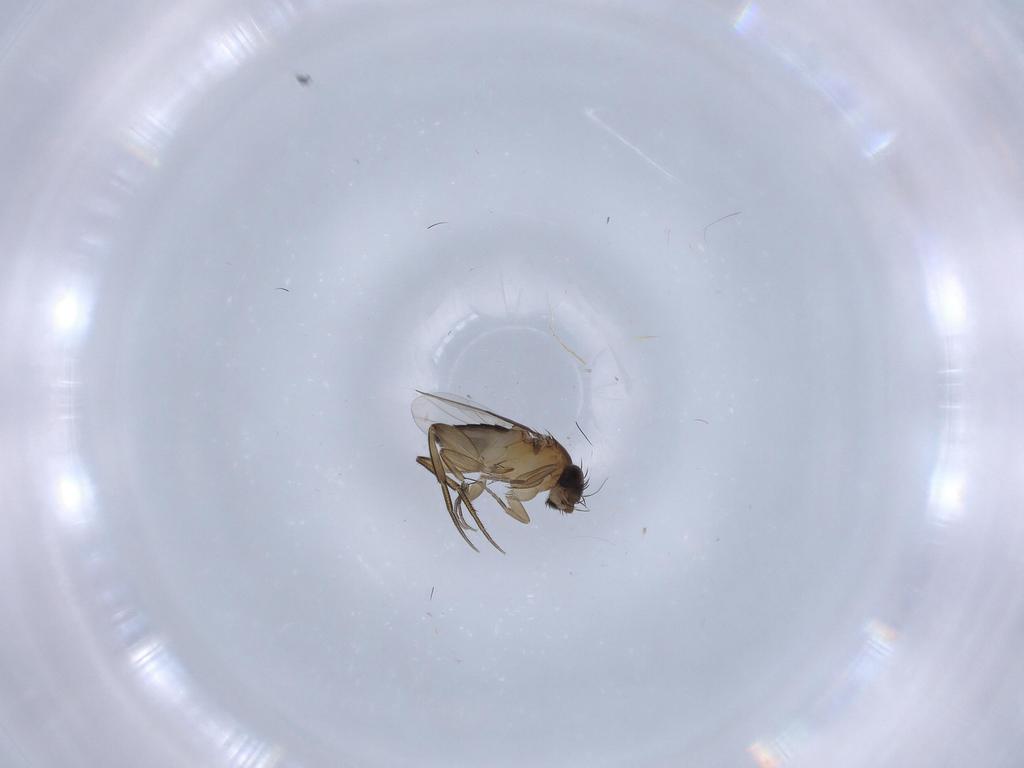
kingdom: Animalia
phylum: Arthropoda
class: Insecta
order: Diptera
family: Phoridae
